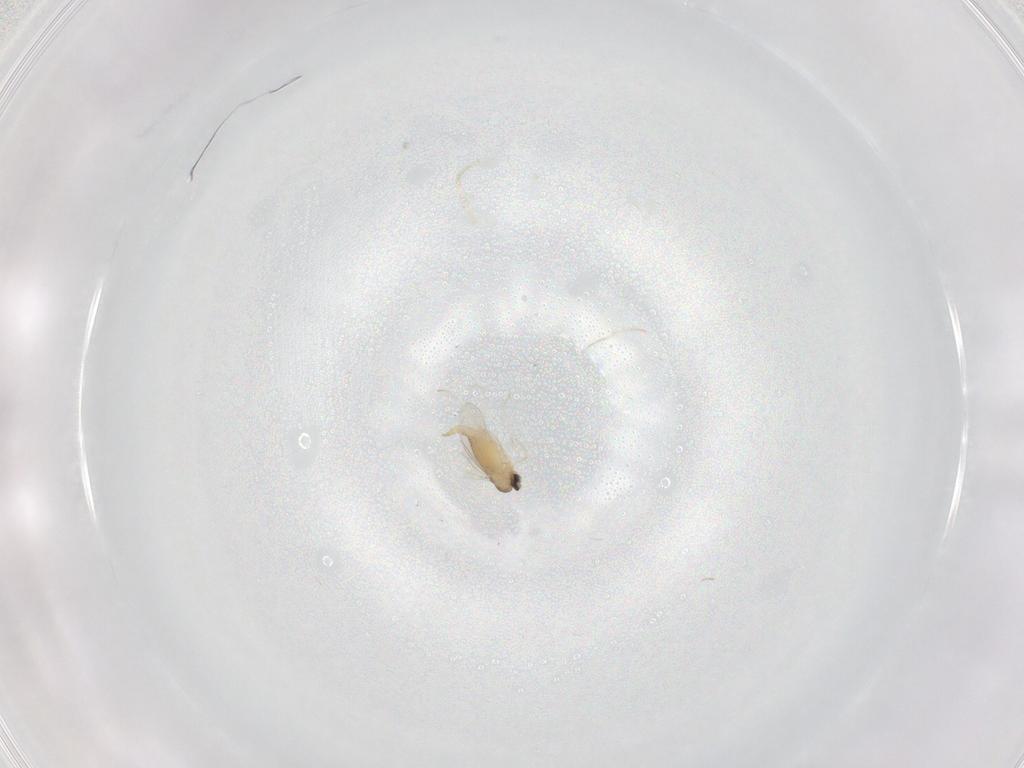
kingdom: Animalia
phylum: Arthropoda
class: Insecta
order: Diptera
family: Cecidomyiidae
